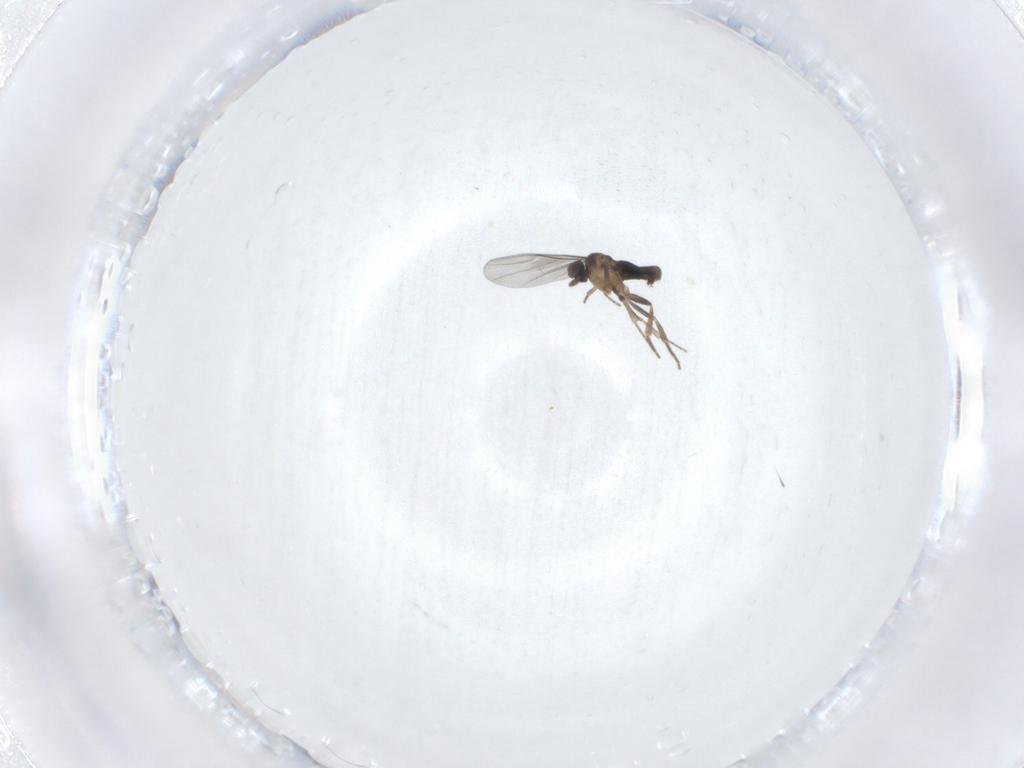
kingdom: Animalia
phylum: Arthropoda
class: Insecta
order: Diptera
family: Phoridae
